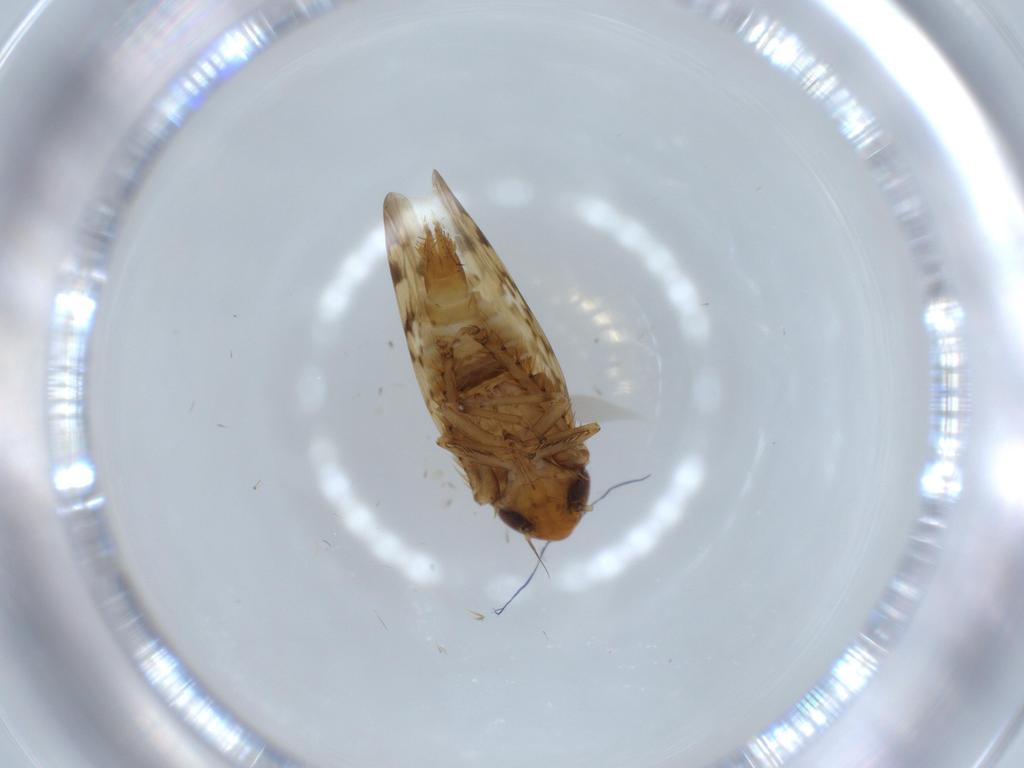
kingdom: Animalia
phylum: Arthropoda
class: Insecta
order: Hemiptera
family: Cicadellidae
